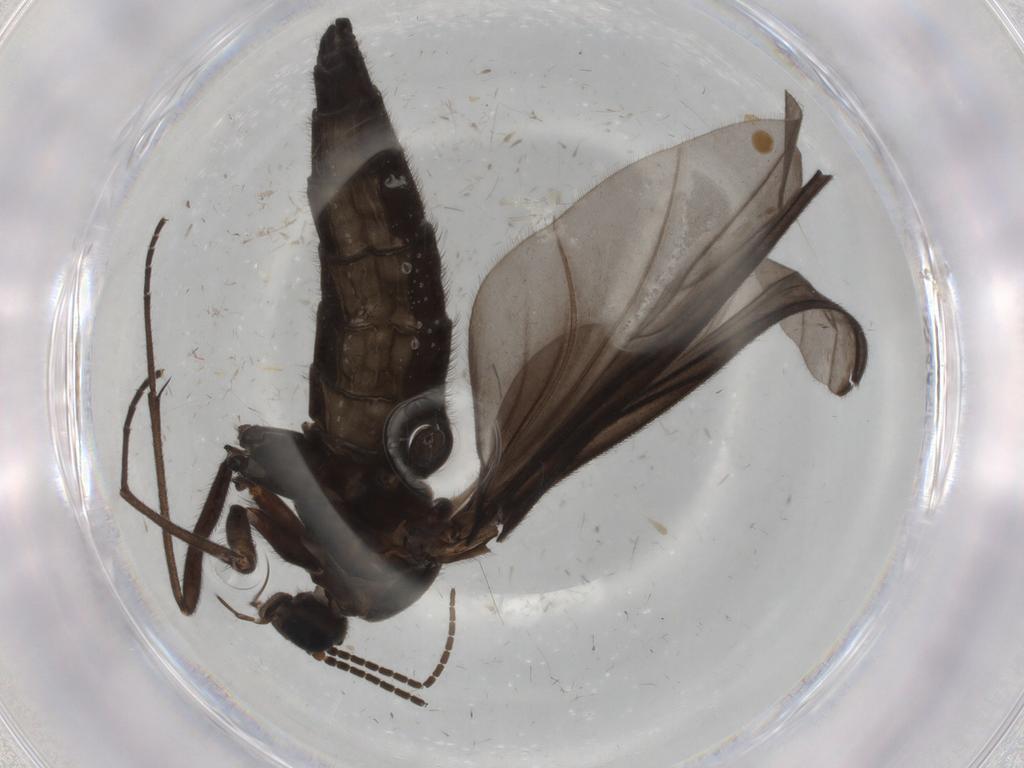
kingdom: Animalia
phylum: Arthropoda
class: Insecta
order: Diptera
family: Sciaridae
